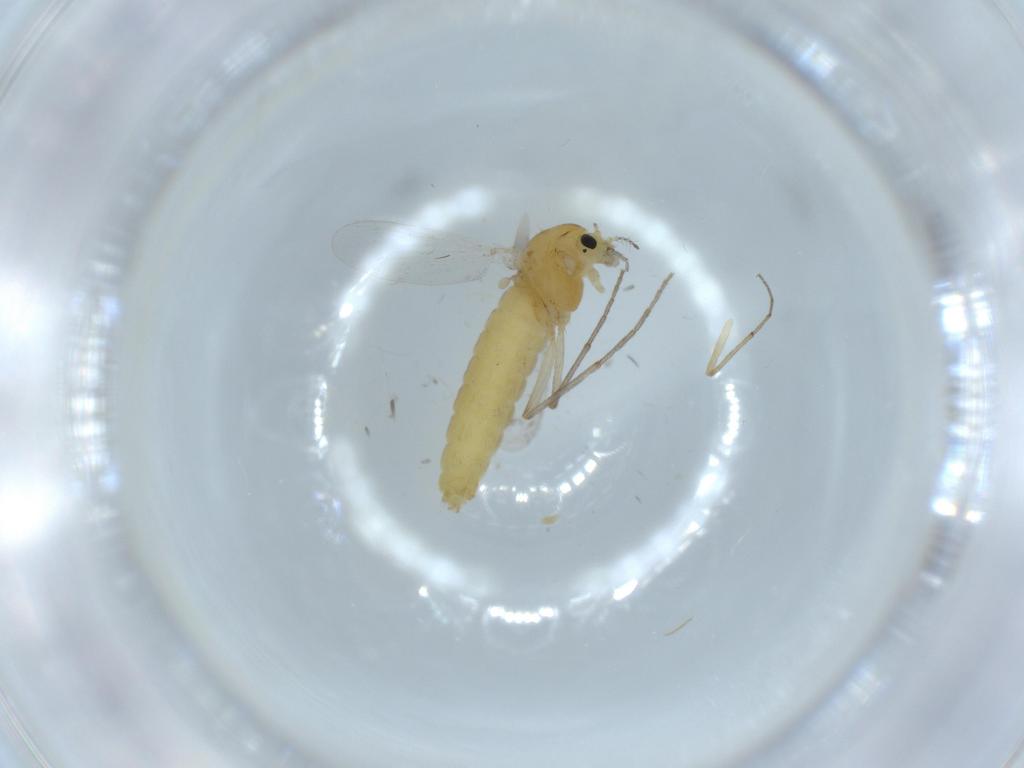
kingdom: Animalia
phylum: Arthropoda
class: Insecta
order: Diptera
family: Chironomidae
